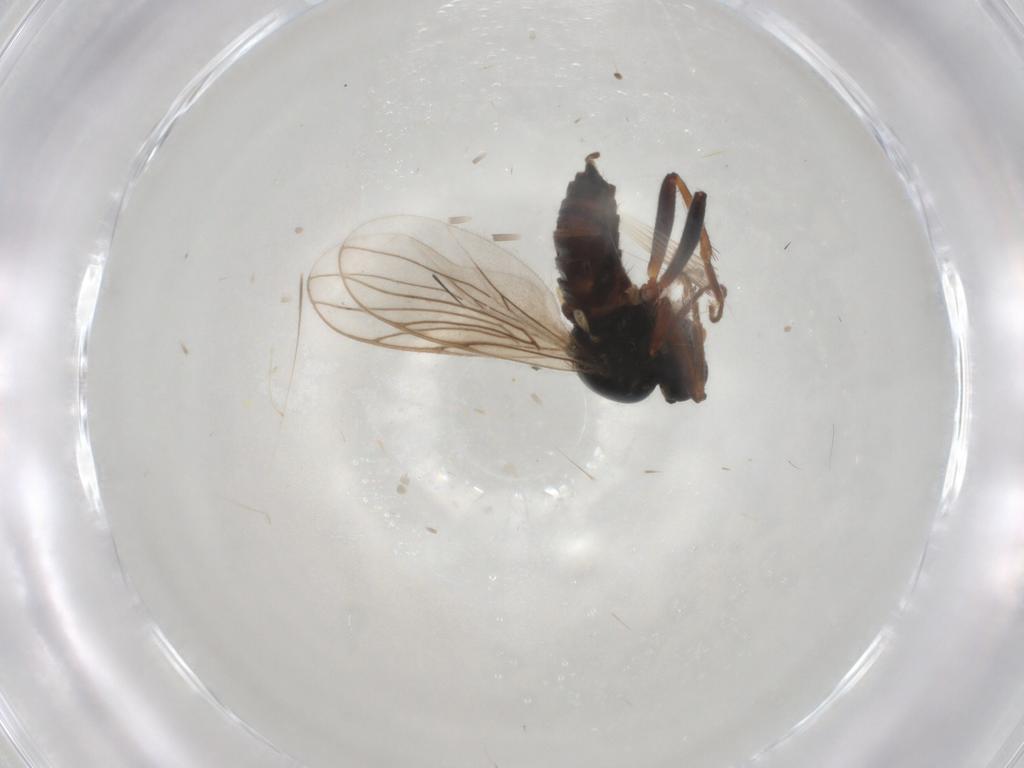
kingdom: Animalia
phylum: Arthropoda
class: Insecta
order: Diptera
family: Hybotidae
